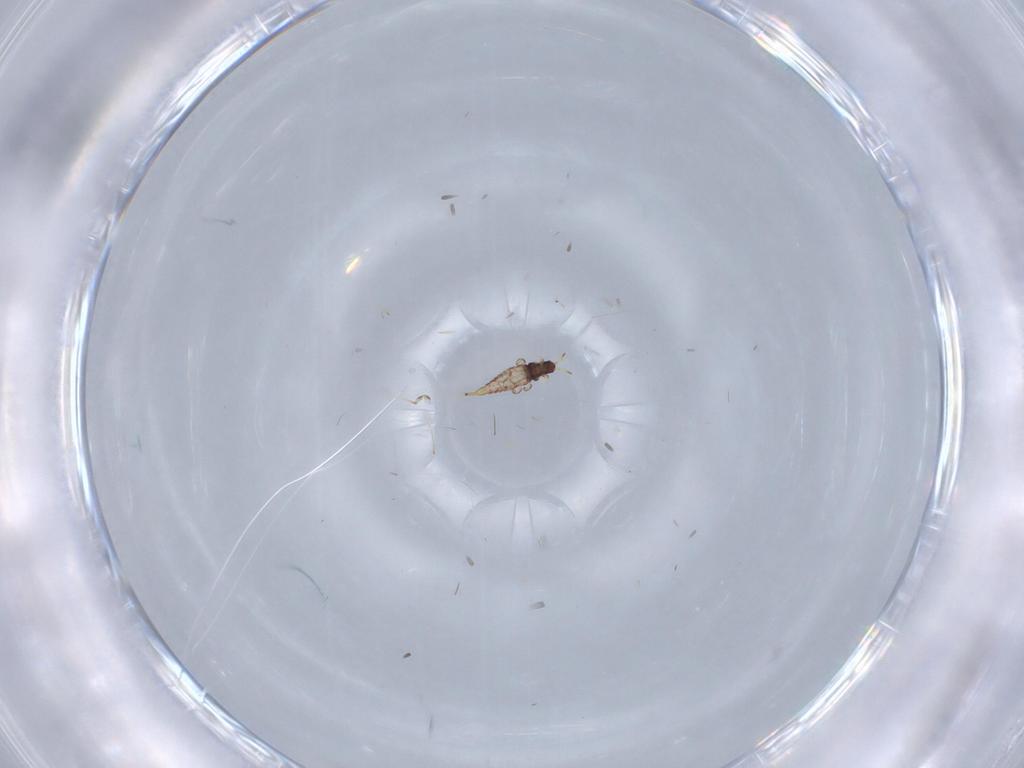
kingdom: Animalia
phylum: Arthropoda
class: Insecta
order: Thysanoptera
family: Phlaeothripidae
